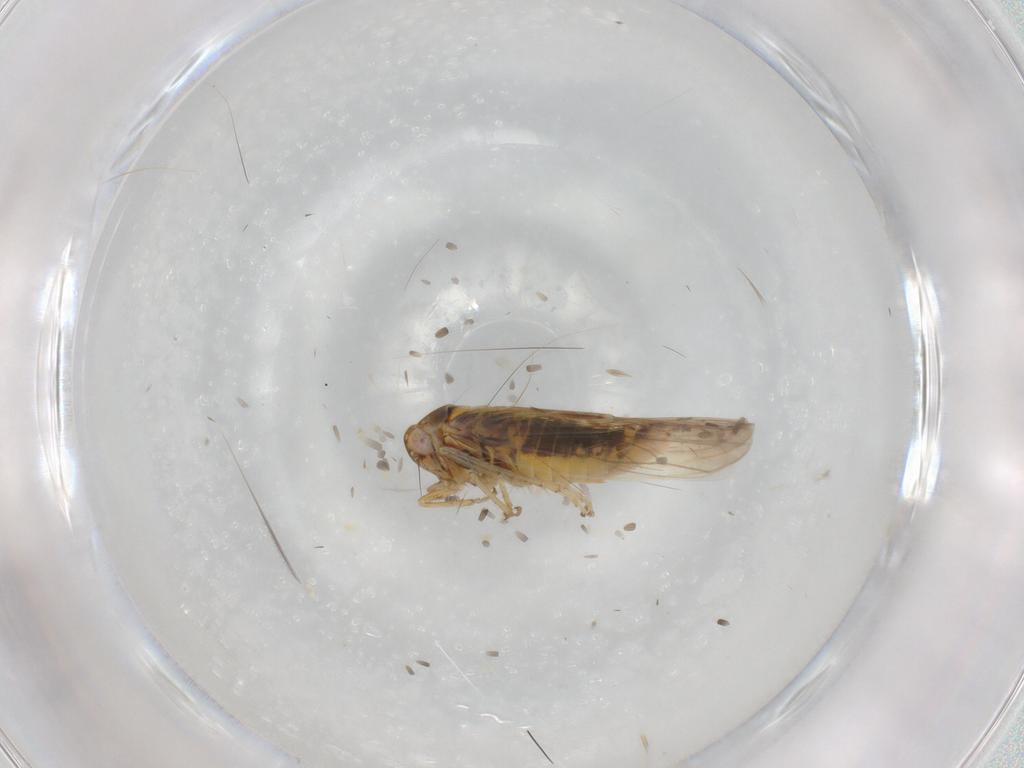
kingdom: Animalia
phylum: Arthropoda
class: Insecta
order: Hemiptera
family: Cicadellidae
